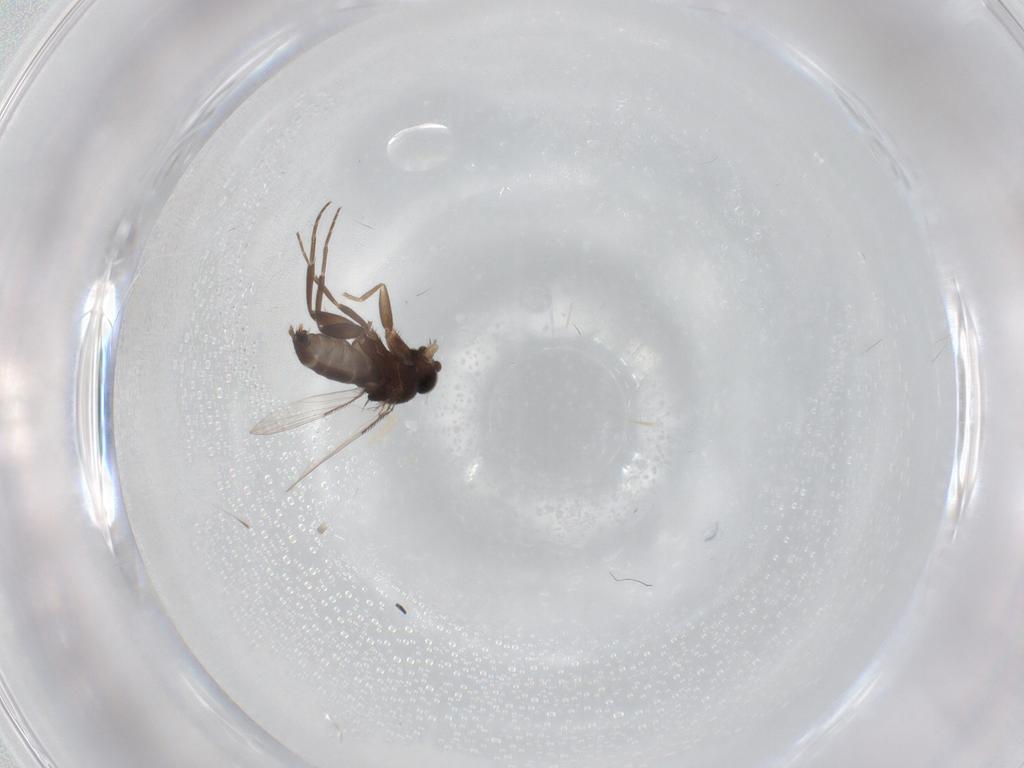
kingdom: Animalia
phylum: Arthropoda
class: Insecta
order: Diptera
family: Phoridae
